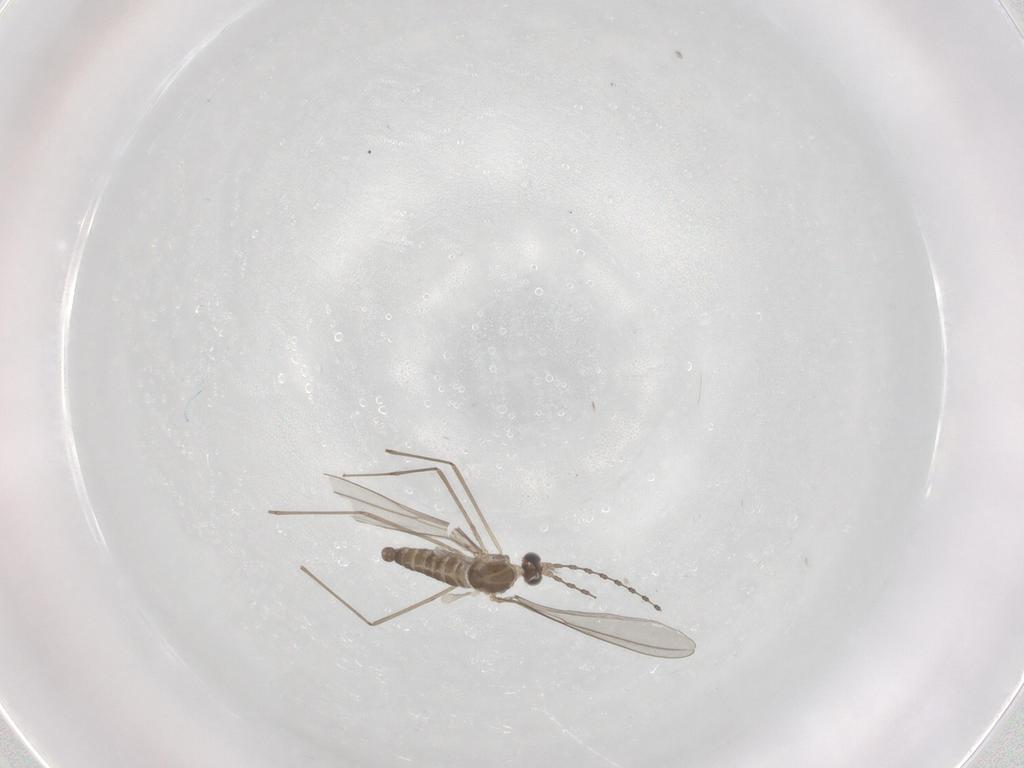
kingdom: Animalia
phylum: Arthropoda
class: Insecta
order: Diptera
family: Cecidomyiidae
